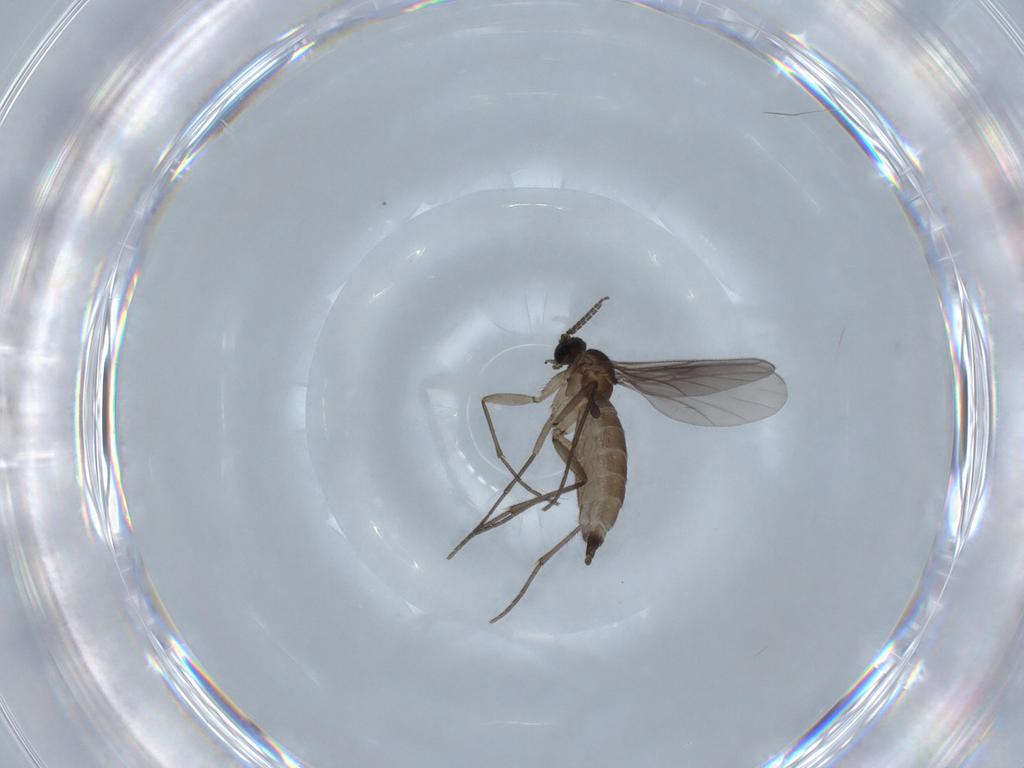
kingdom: Animalia
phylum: Arthropoda
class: Insecta
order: Diptera
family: Sciaridae
